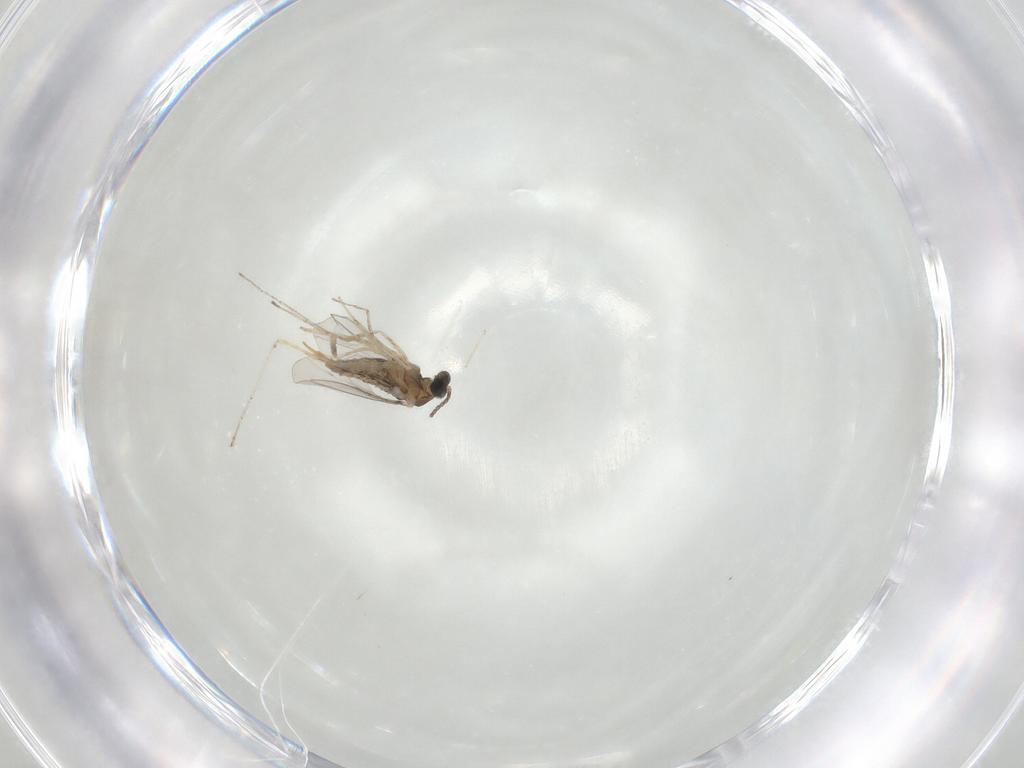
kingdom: Animalia
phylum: Arthropoda
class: Insecta
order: Diptera
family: Cecidomyiidae
